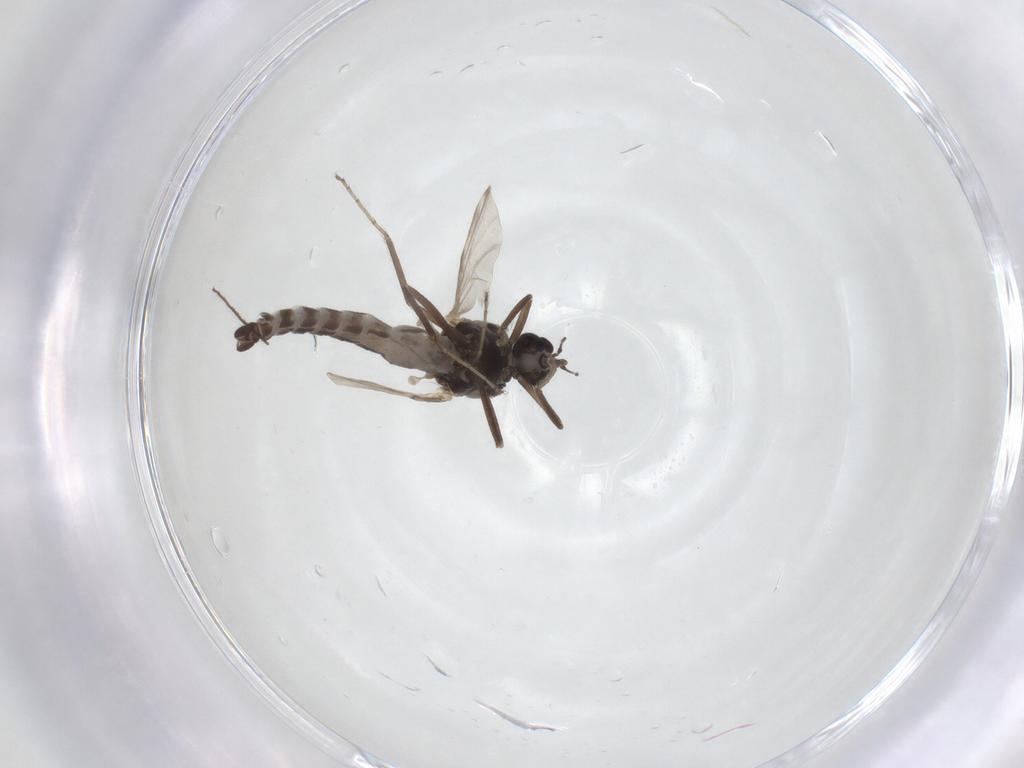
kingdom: Animalia
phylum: Arthropoda
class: Insecta
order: Diptera
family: Ceratopogonidae
